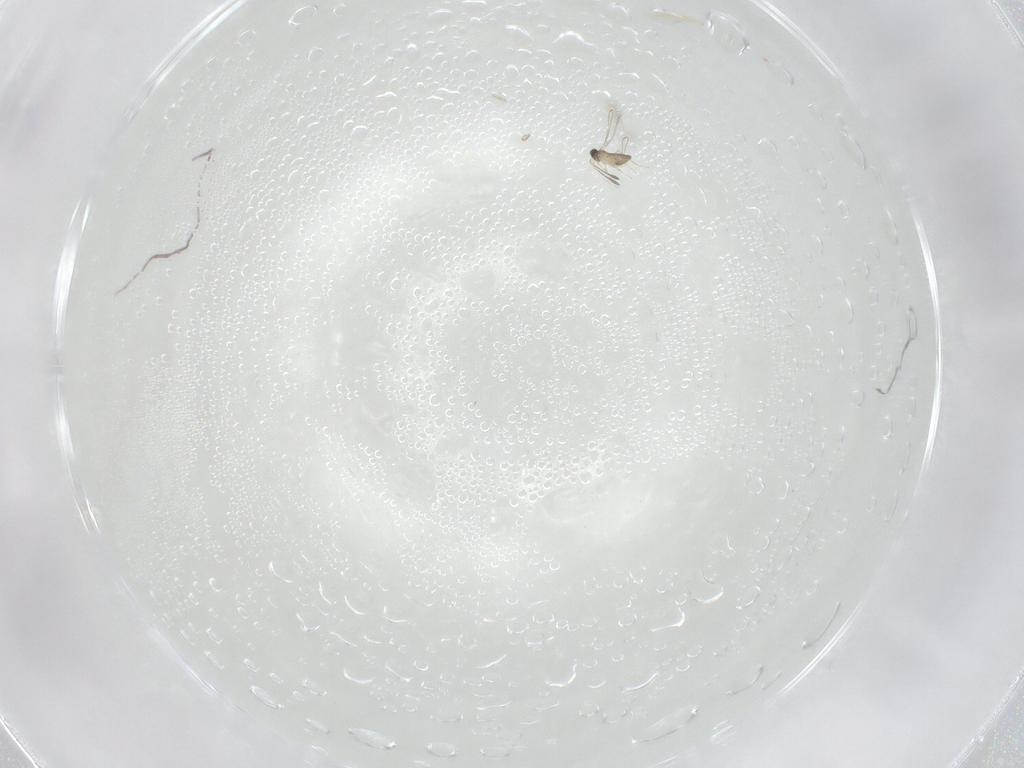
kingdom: Animalia
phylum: Arthropoda
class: Insecta
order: Hymenoptera
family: Mymaridae
